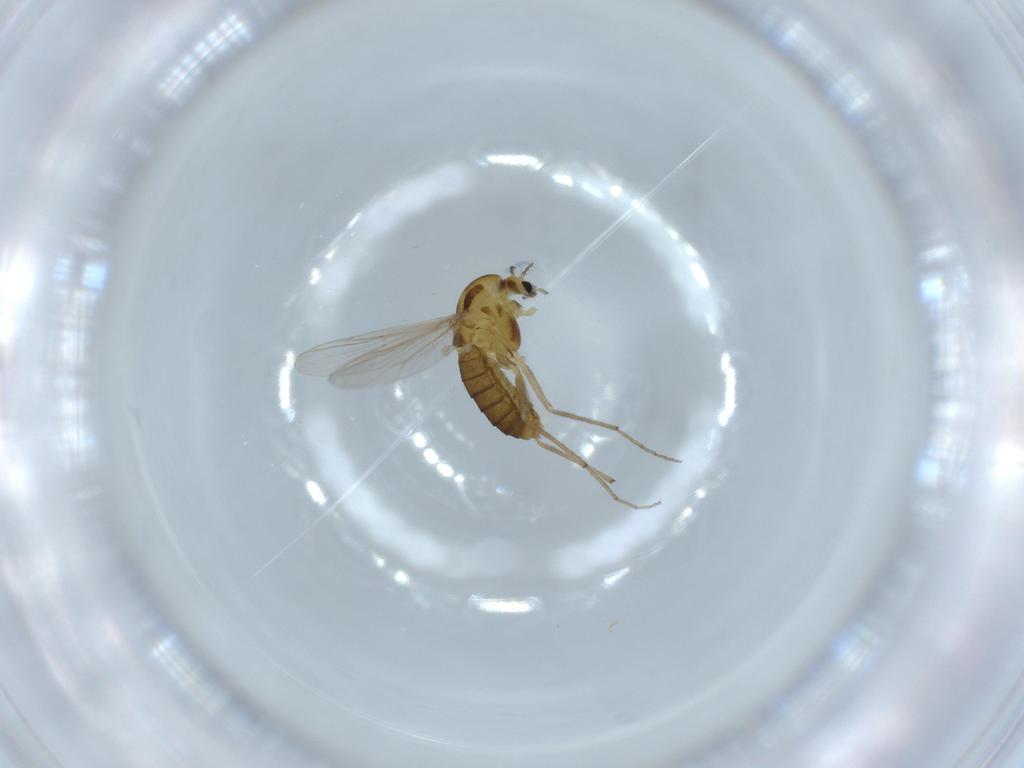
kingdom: Animalia
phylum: Arthropoda
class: Insecta
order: Diptera
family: Chironomidae
